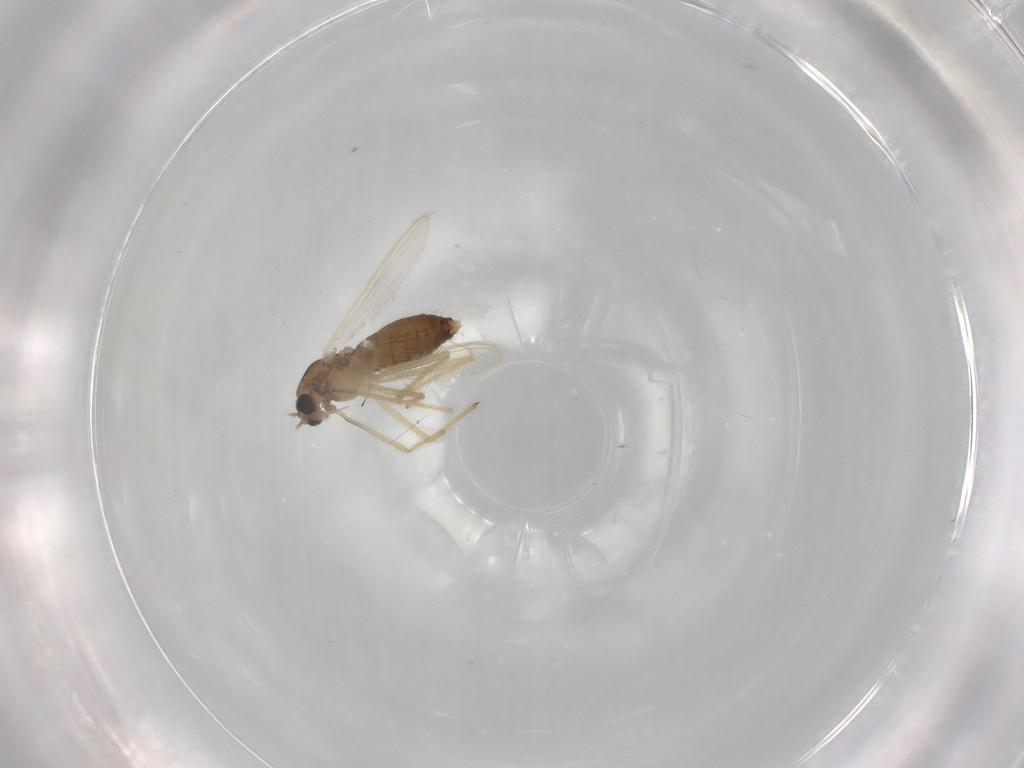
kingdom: Animalia
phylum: Arthropoda
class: Insecta
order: Diptera
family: Chironomidae
